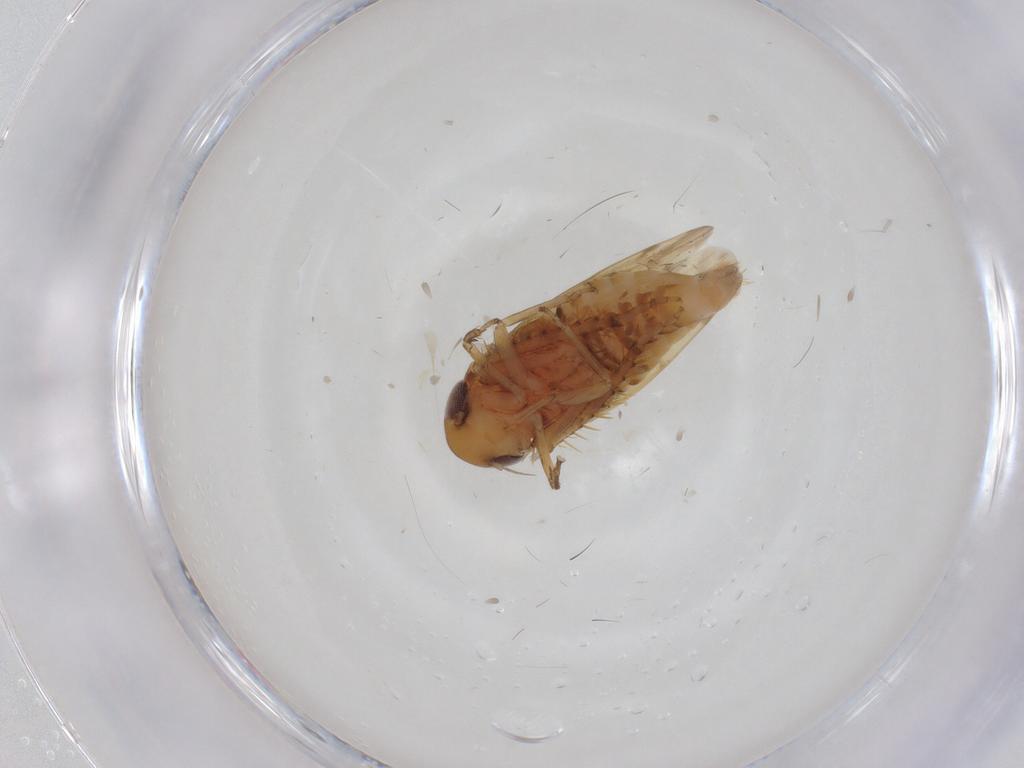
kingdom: Animalia
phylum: Arthropoda
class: Insecta
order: Hemiptera
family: Cicadellidae
